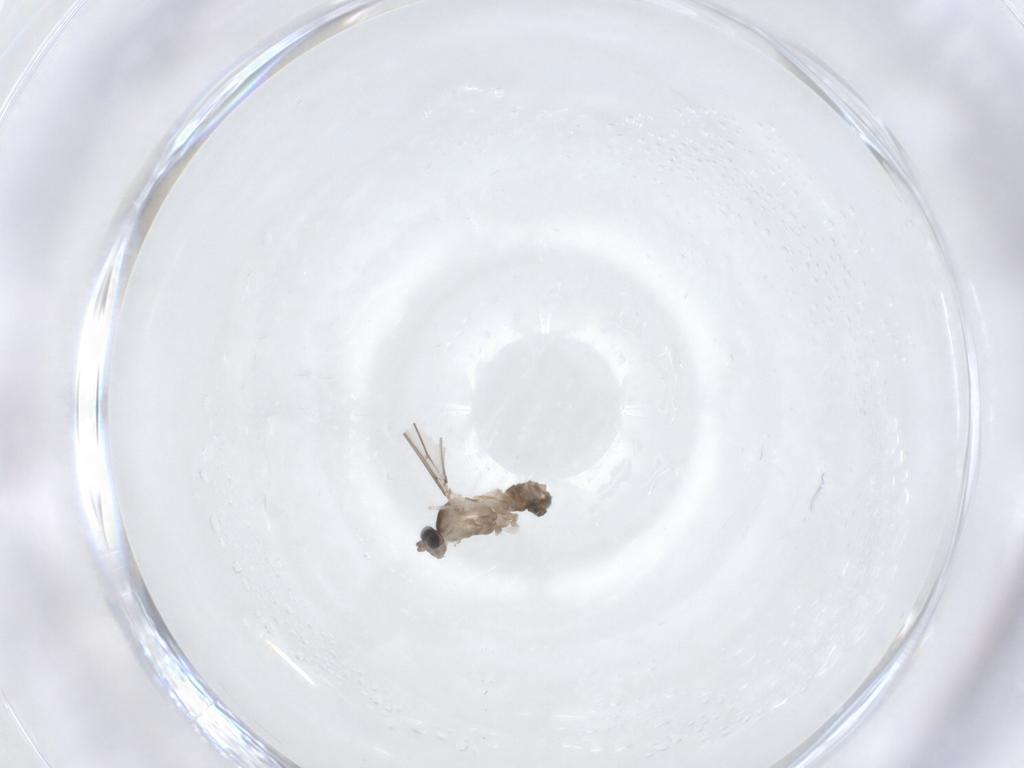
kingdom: Animalia
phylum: Arthropoda
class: Insecta
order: Diptera
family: Cecidomyiidae
